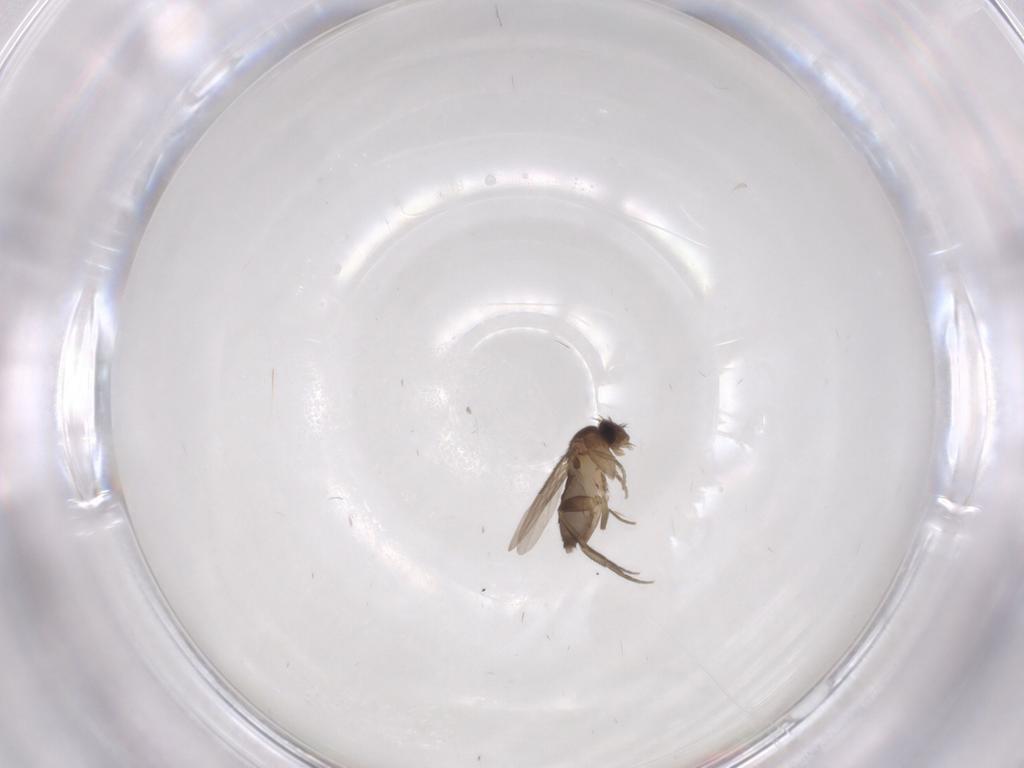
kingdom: Animalia
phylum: Arthropoda
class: Insecta
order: Diptera
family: Phoridae
